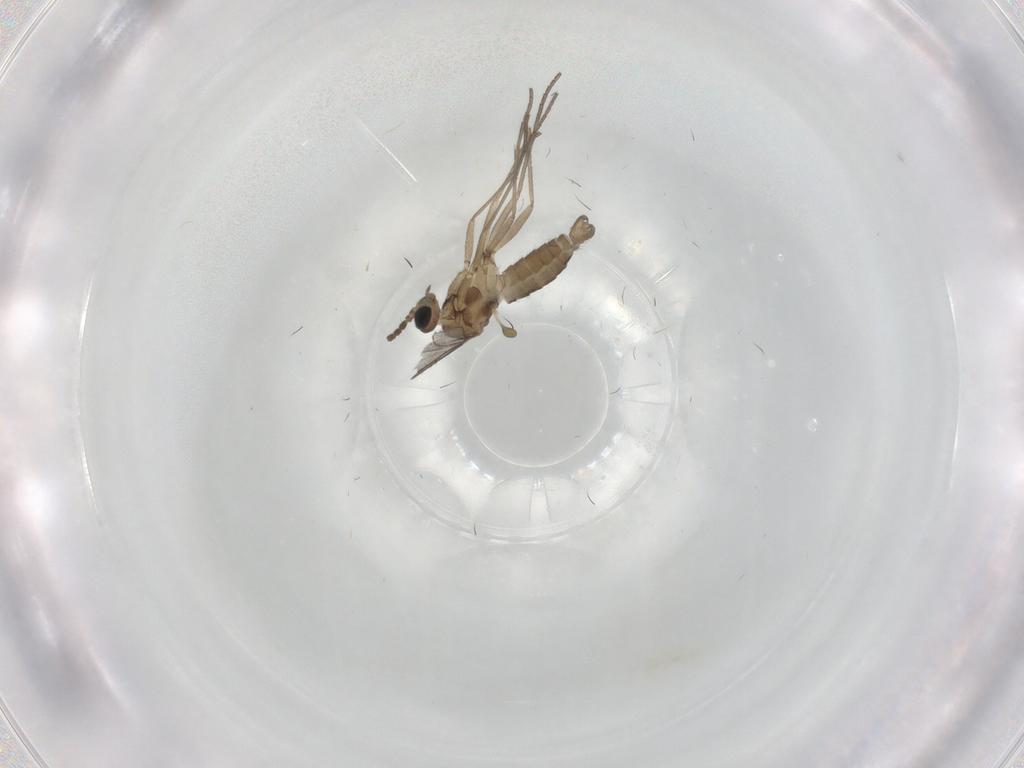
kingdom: Animalia
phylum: Arthropoda
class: Insecta
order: Diptera
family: Cecidomyiidae
